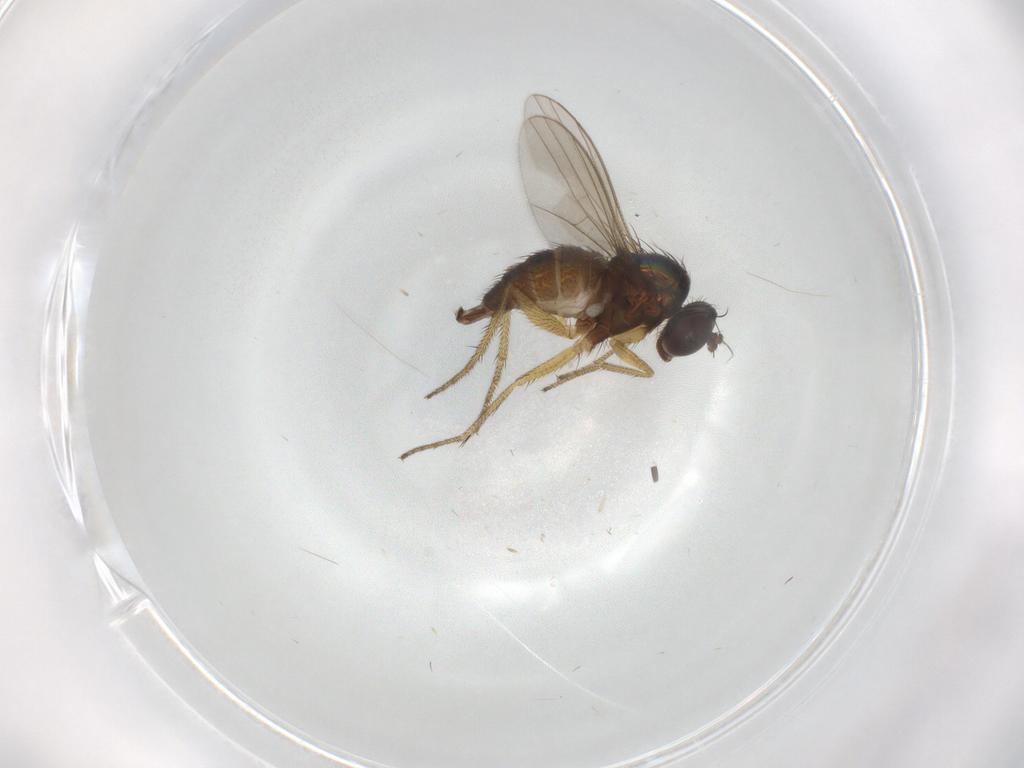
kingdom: Animalia
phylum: Arthropoda
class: Insecta
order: Diptera
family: Dolichopodidae
